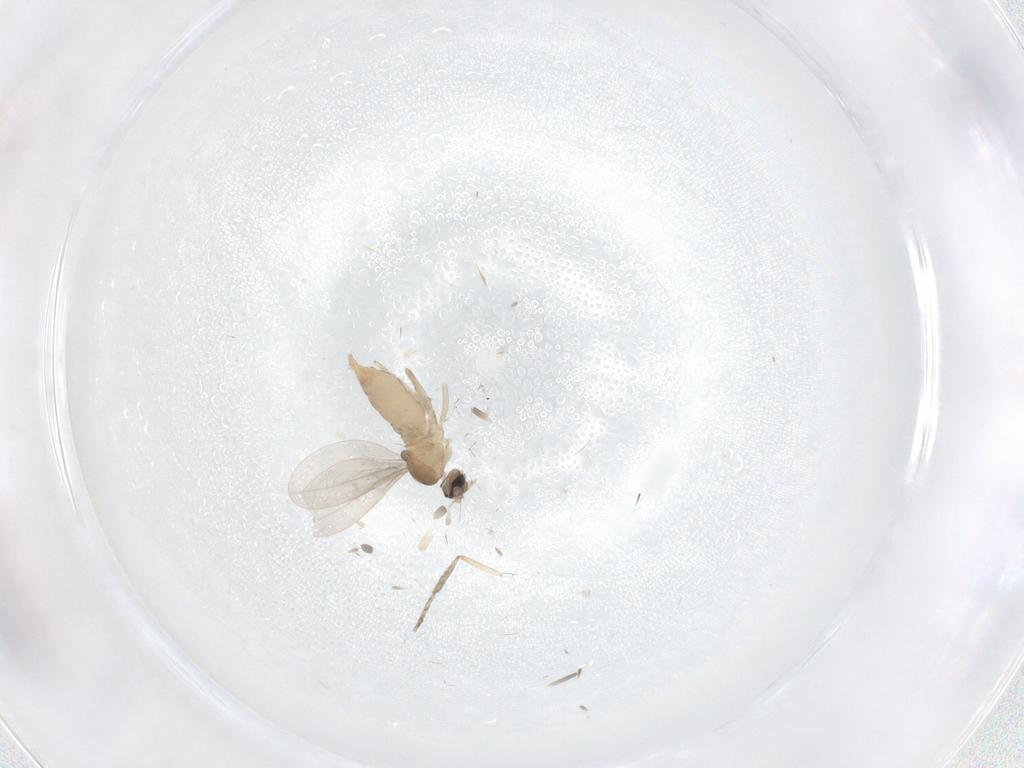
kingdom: Animalia
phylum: Arthropoda
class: Insecta
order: Diptera
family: Cecidomyiidae
